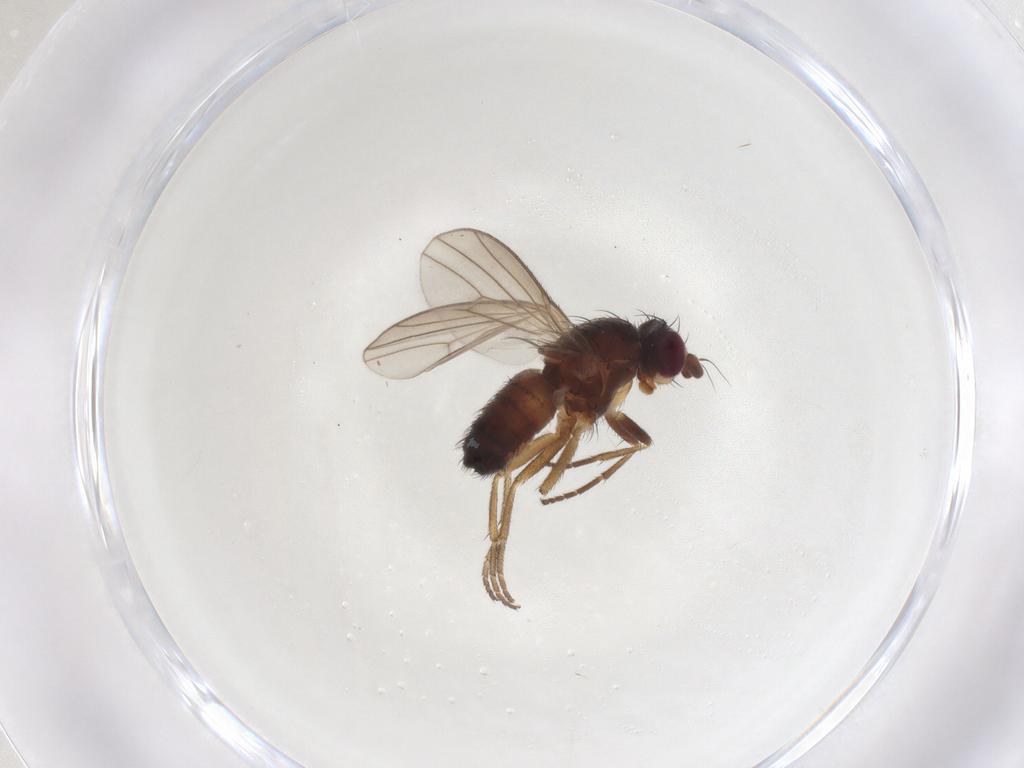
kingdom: Animalia
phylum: Arthropoda
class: Insecta
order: Diptera
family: Heleomyzidae
